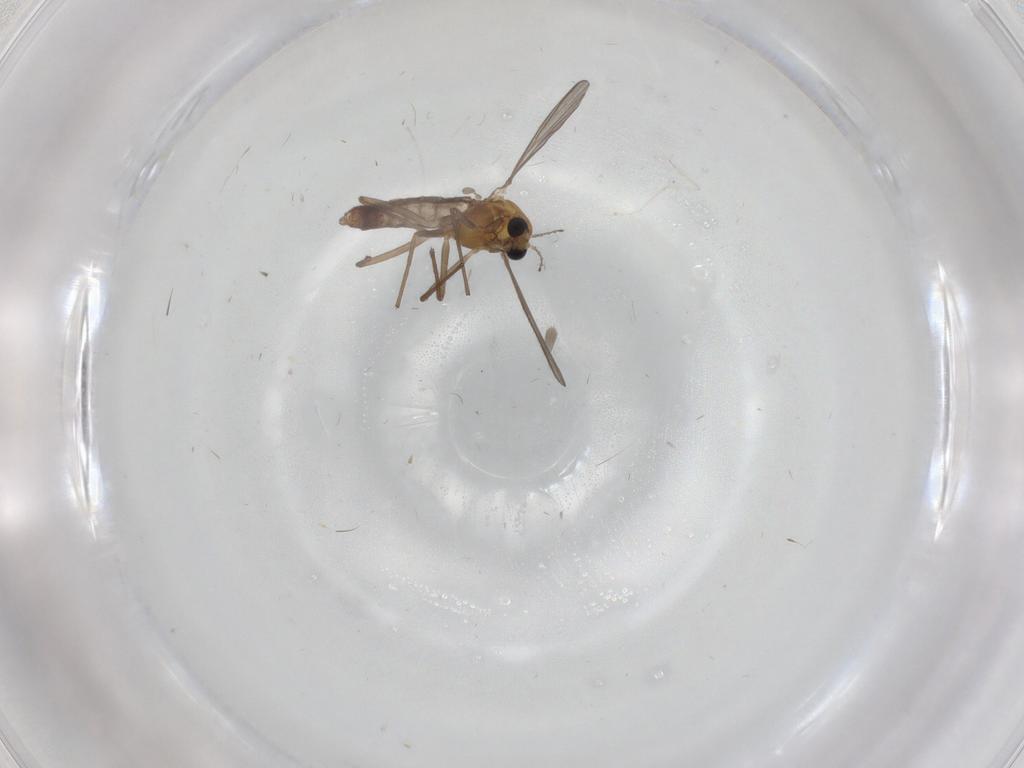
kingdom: Animalia
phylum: Arthropoda
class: Insecta
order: Diptera
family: Chironomidae
